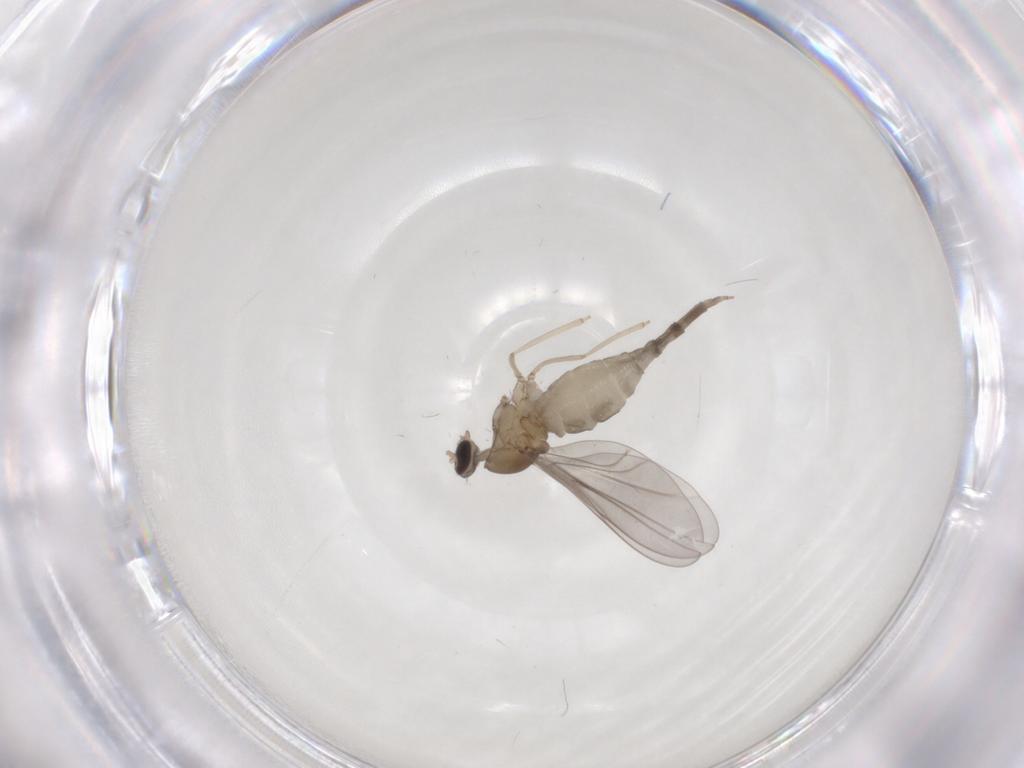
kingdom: Animalia
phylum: Arthropoda
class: Insecta
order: Diptera
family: Cecidomyiidae
